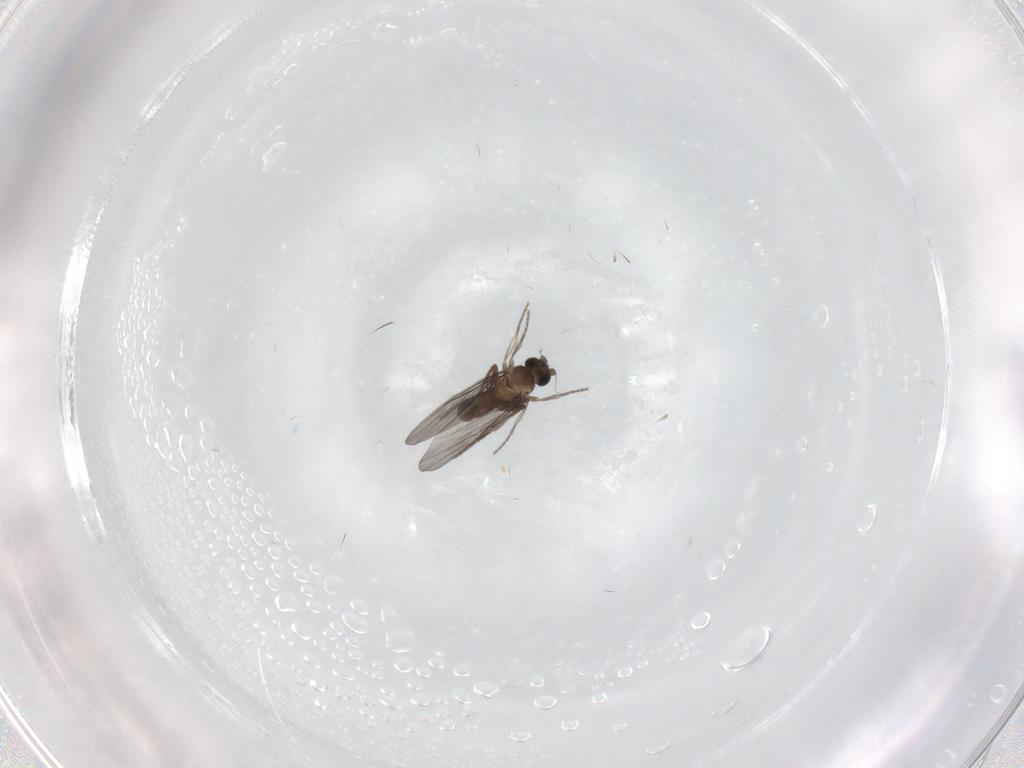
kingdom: Animalia
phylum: Arthropoda
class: Insecta
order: Diptera
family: Phoridae
